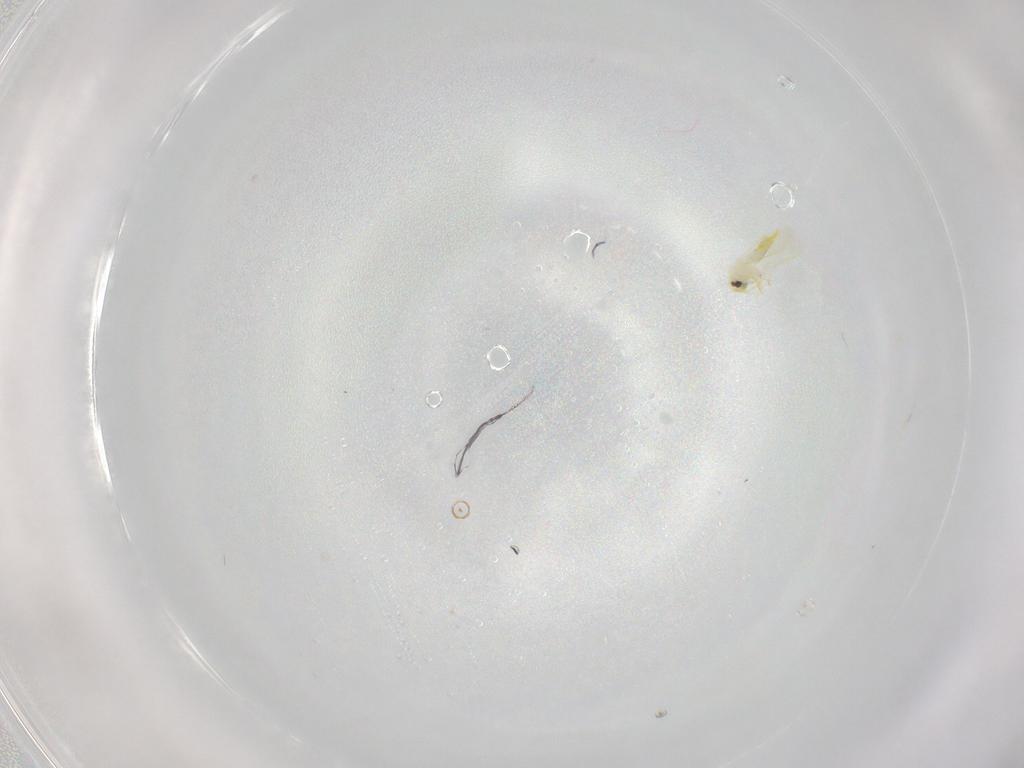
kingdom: Animalia
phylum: Arthropoda
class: Insecta
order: Hemiptera
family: Aleyrodidae
